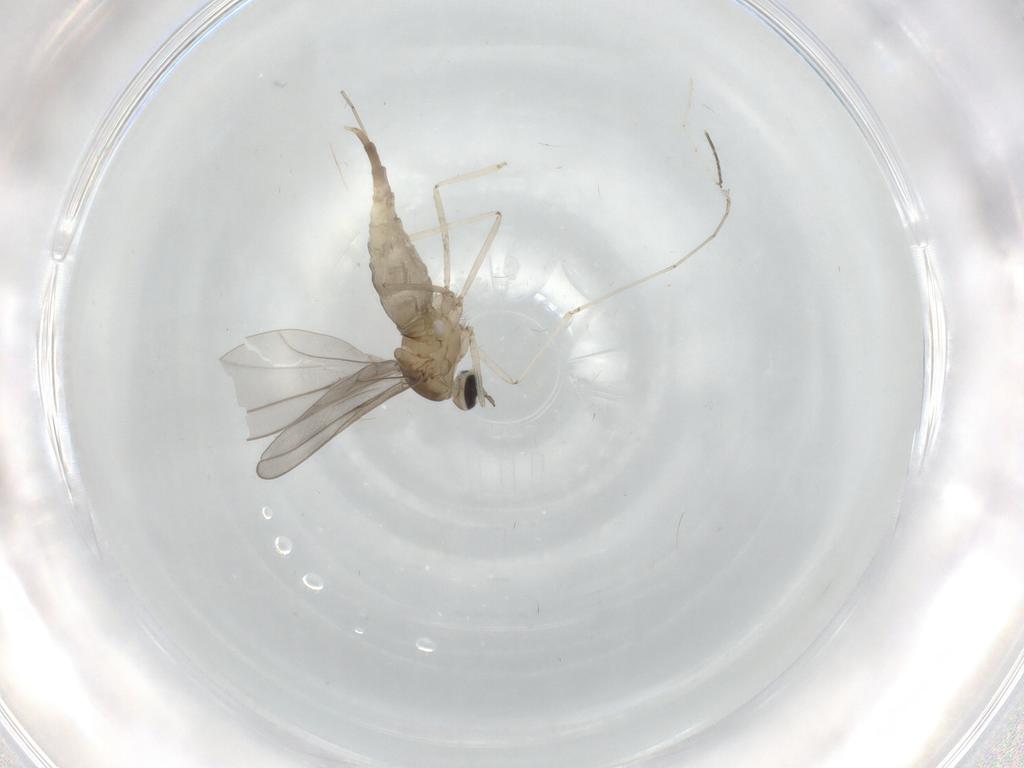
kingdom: Animalia
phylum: Arthropoda
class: Insecta
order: Diptera
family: Cecidomyiidae
